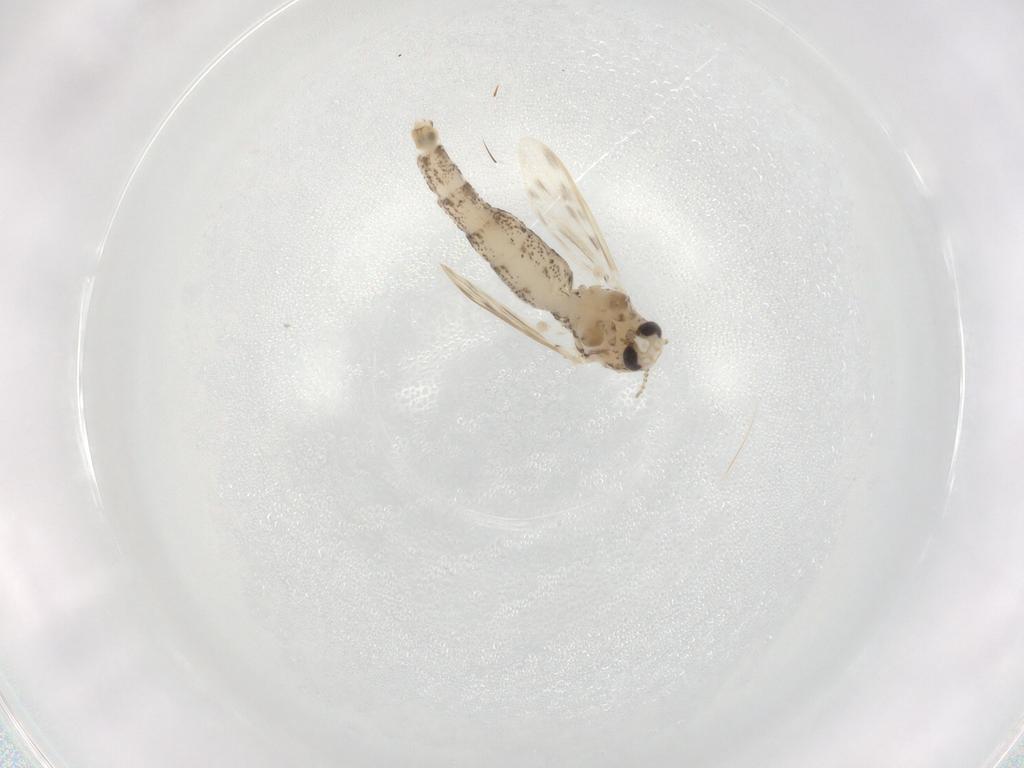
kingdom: Animalia
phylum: Arthropoda
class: Insecta
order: Diptera
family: Chaoboridae
